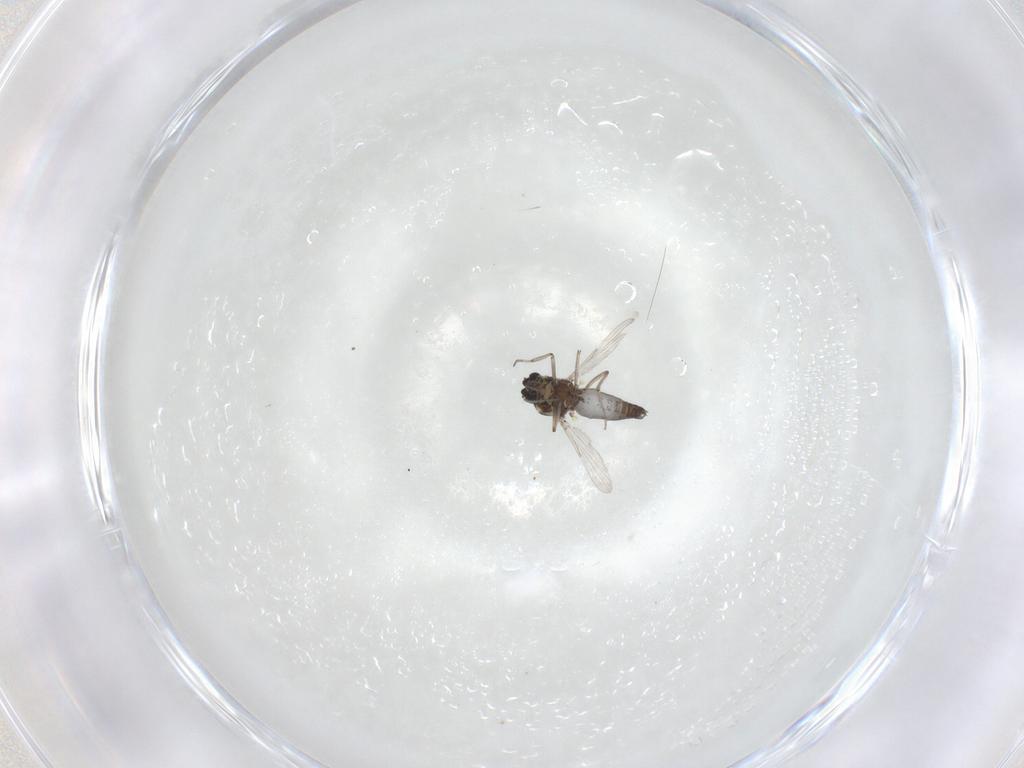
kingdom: Animalia
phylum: Arthropoda
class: Insecta
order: Diptera
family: Ceratopogonidae
